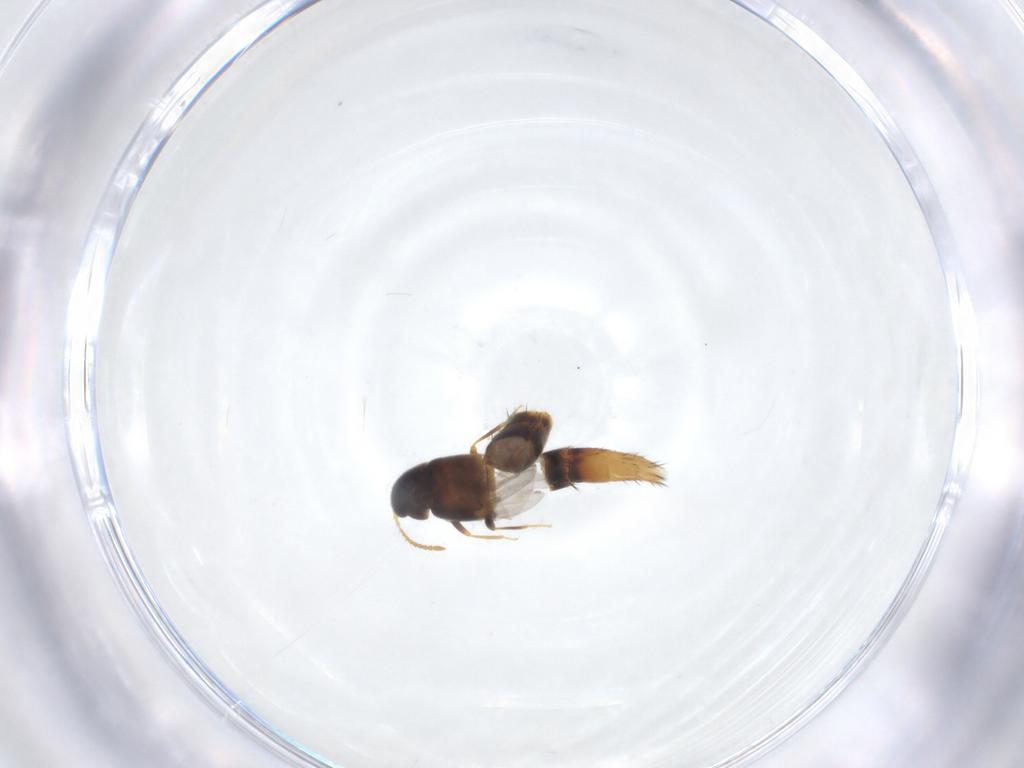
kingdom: Animalia
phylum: Arthropoda
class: Insecta
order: Coleoptera
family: Staphylinidae
